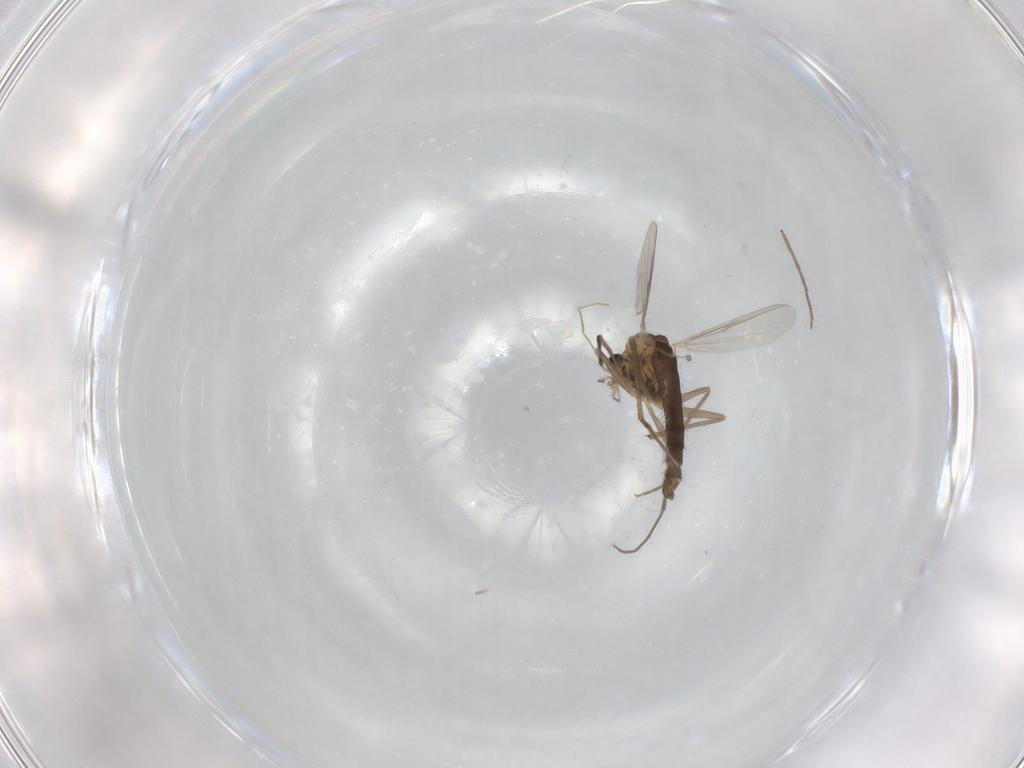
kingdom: Animalia
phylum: Arthropoda
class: Insecta
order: Diptera
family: Chironomidae
